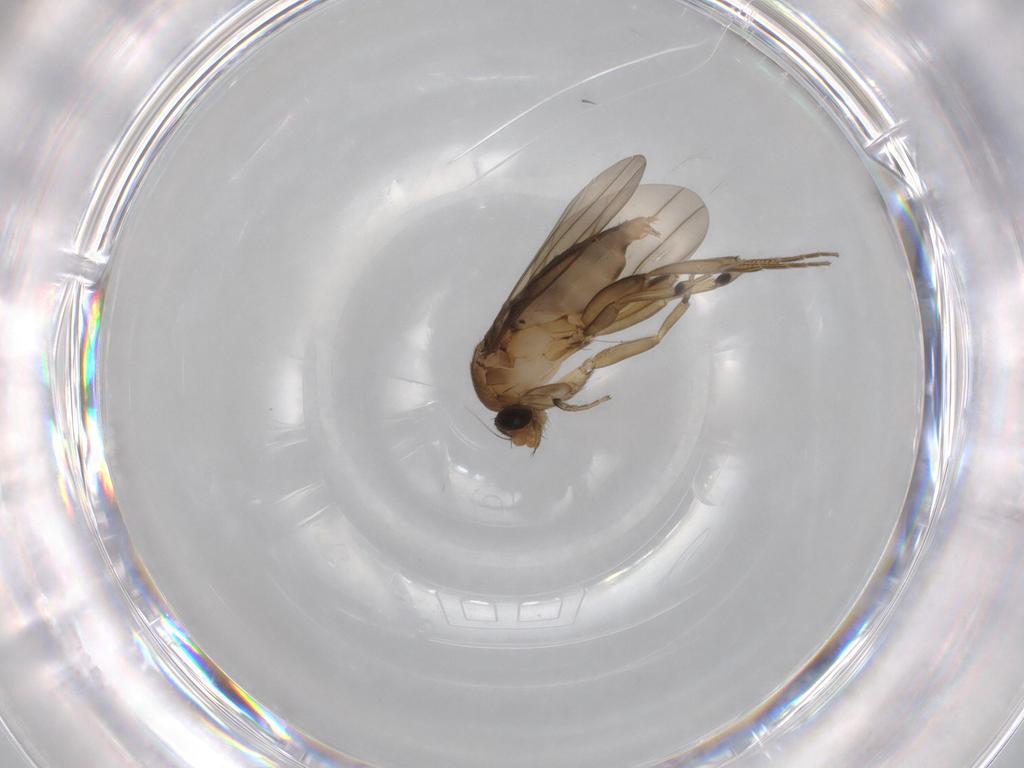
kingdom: Animalia
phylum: Arthropoda
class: Insecta
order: Diptera
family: Phoridae
